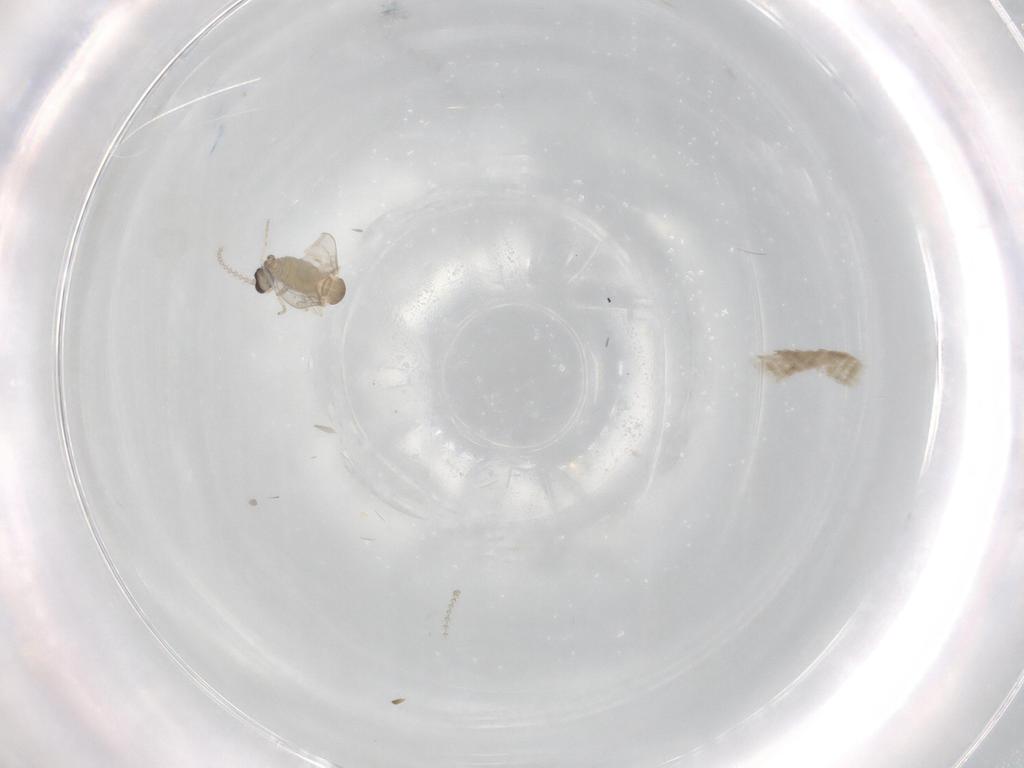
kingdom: Animalia
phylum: Arthropoda
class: Insecta
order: Diptera
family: Cecidomyiidae
